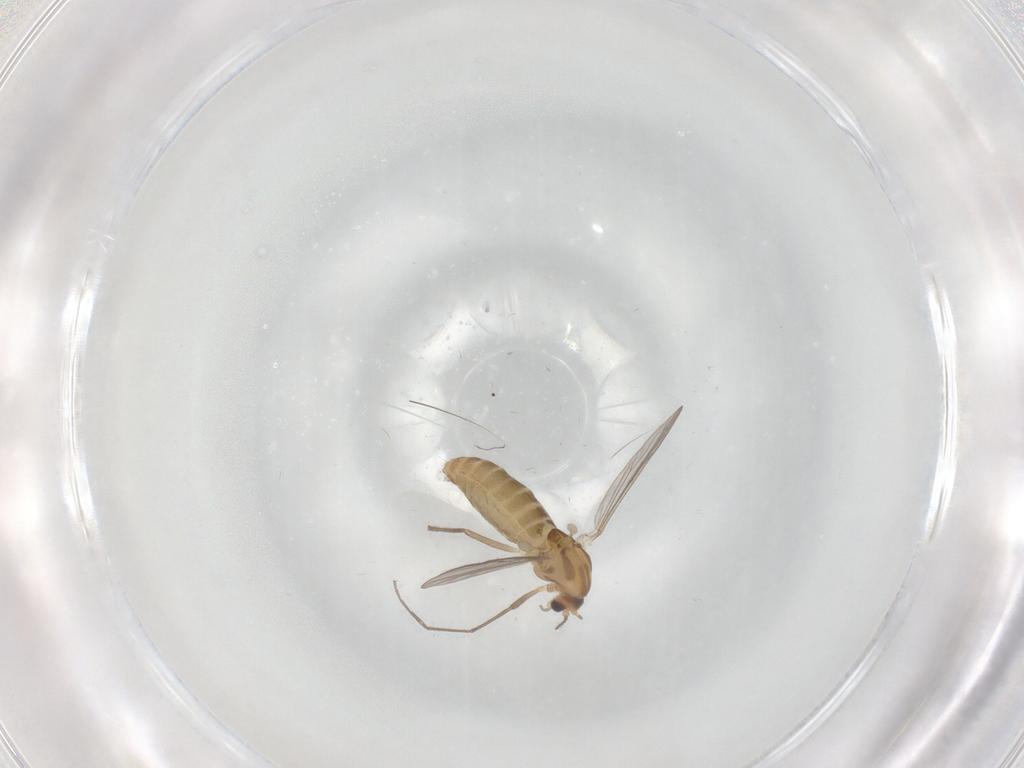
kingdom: Animalia
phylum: Arthropoda
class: Insecta
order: Diptera
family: Chironomidae
